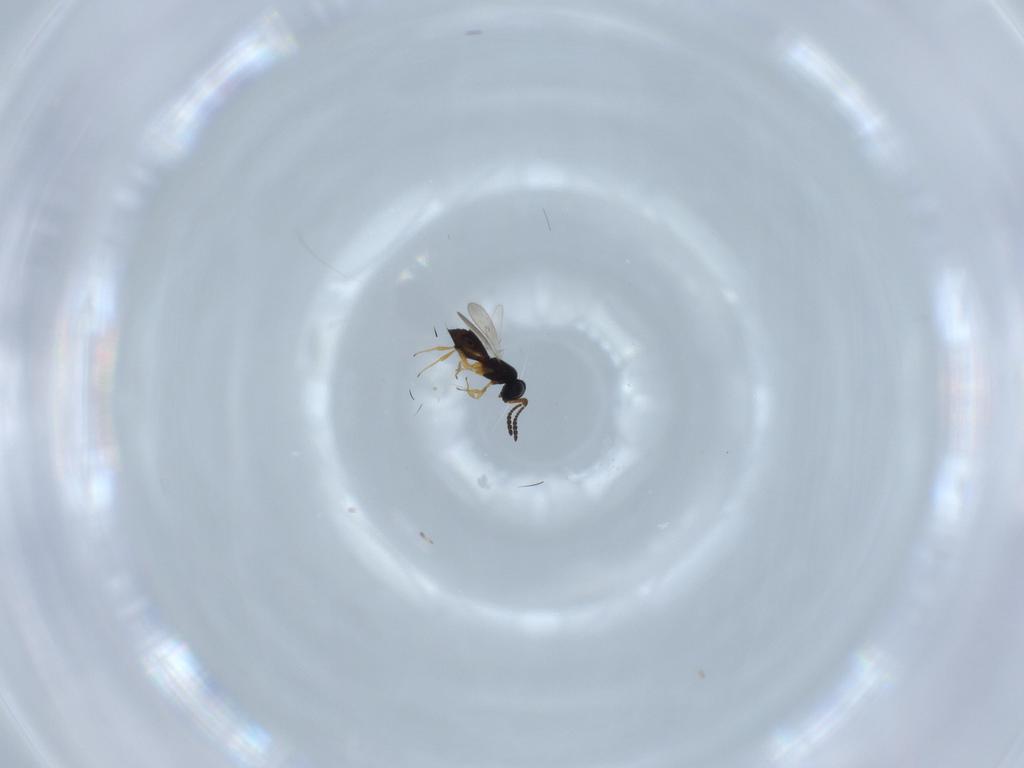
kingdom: Animalia
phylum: Arthropoda
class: Insecta
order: Hymenoptera
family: Scelionidae
